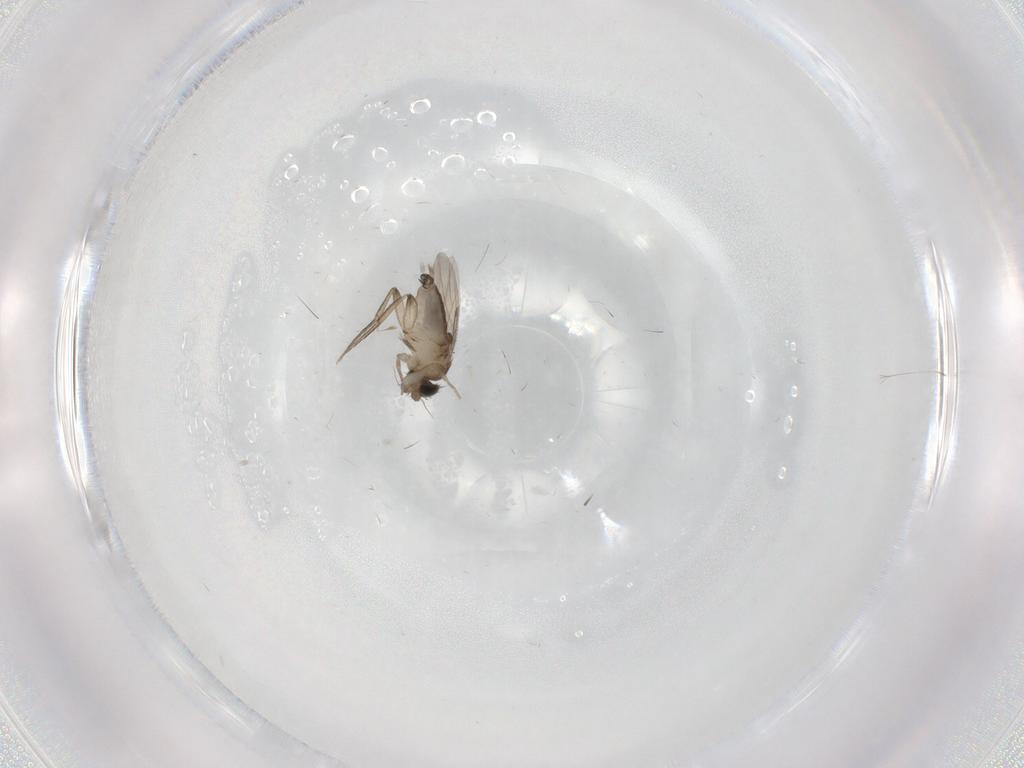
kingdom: Animalia
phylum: Arthropoda
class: Insecta
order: Diptera
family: Phoridae
